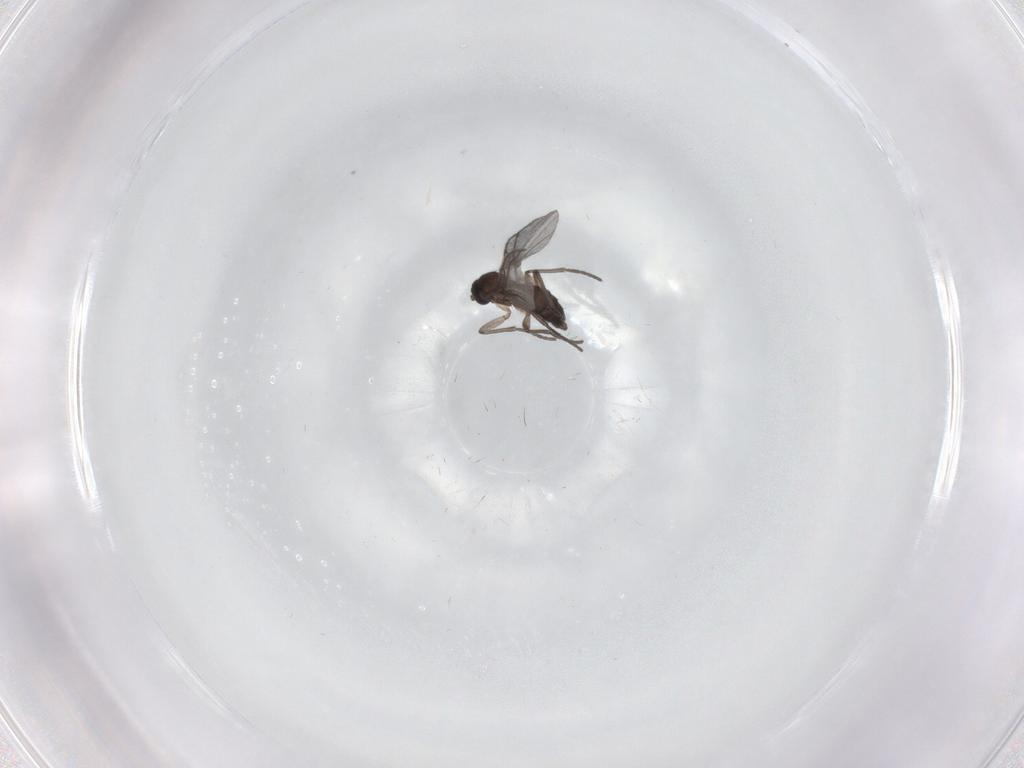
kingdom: Animalia
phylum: Arthropoda
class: Insecta
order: Diptera
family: Sciaridae
